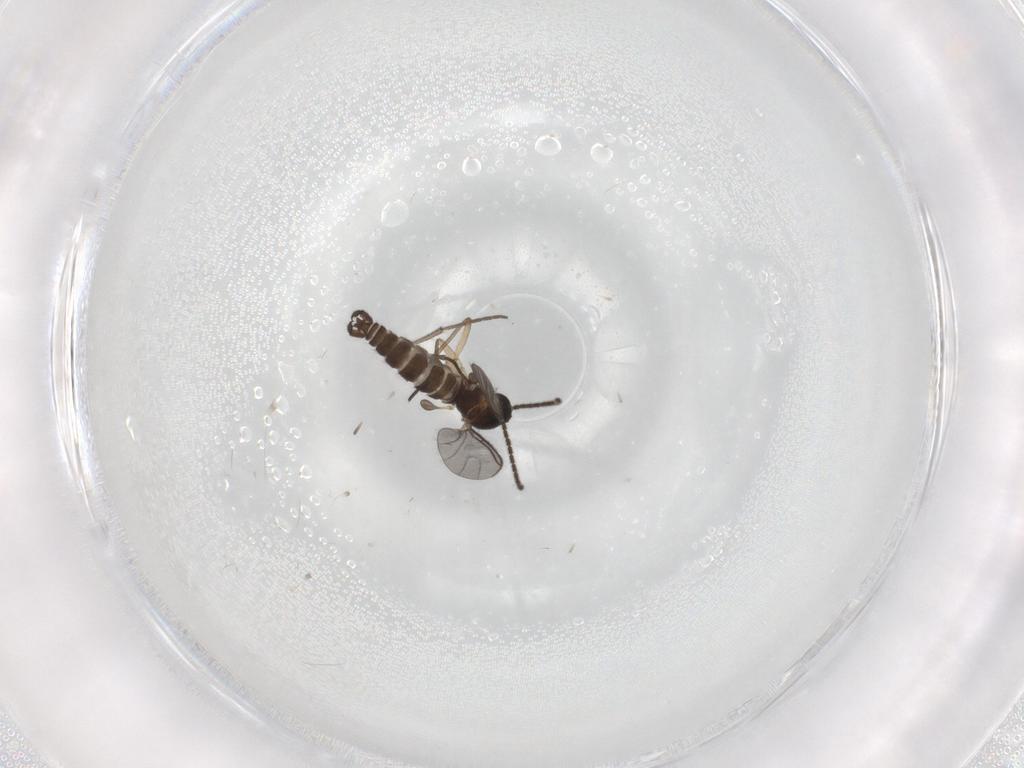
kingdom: Animalia
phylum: Arthropoda
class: Insecta
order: Diptera
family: Sciaridae
